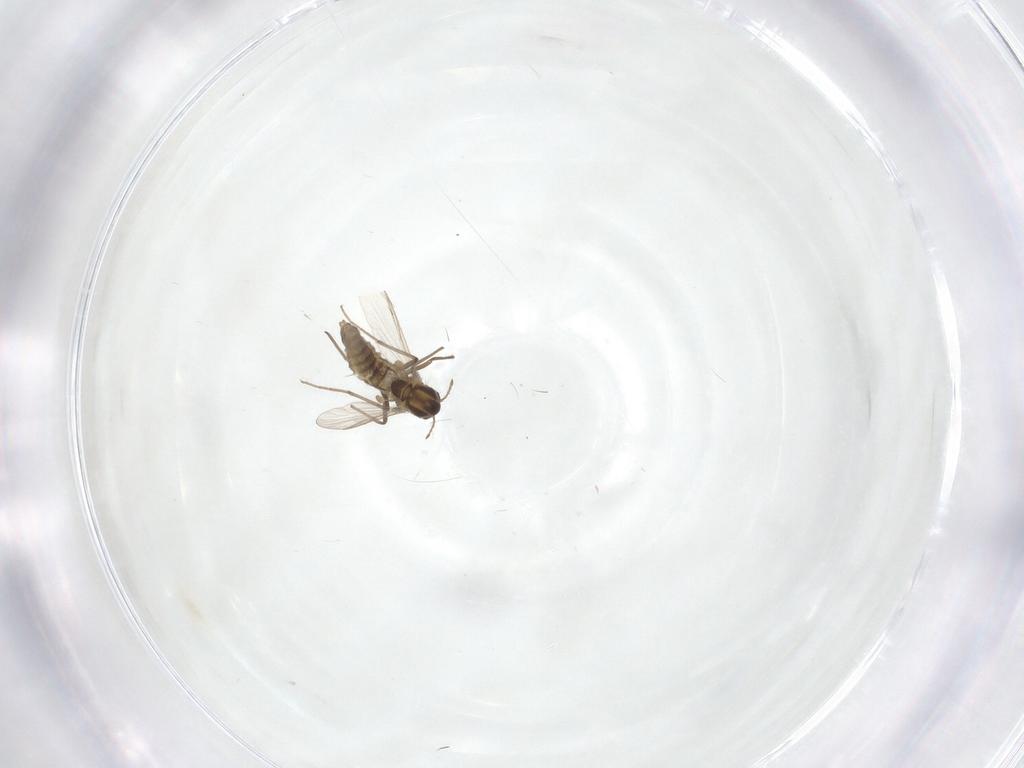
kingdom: Animalia
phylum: Arthropoda
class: Insecta
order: Diptera
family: Chironomidae
